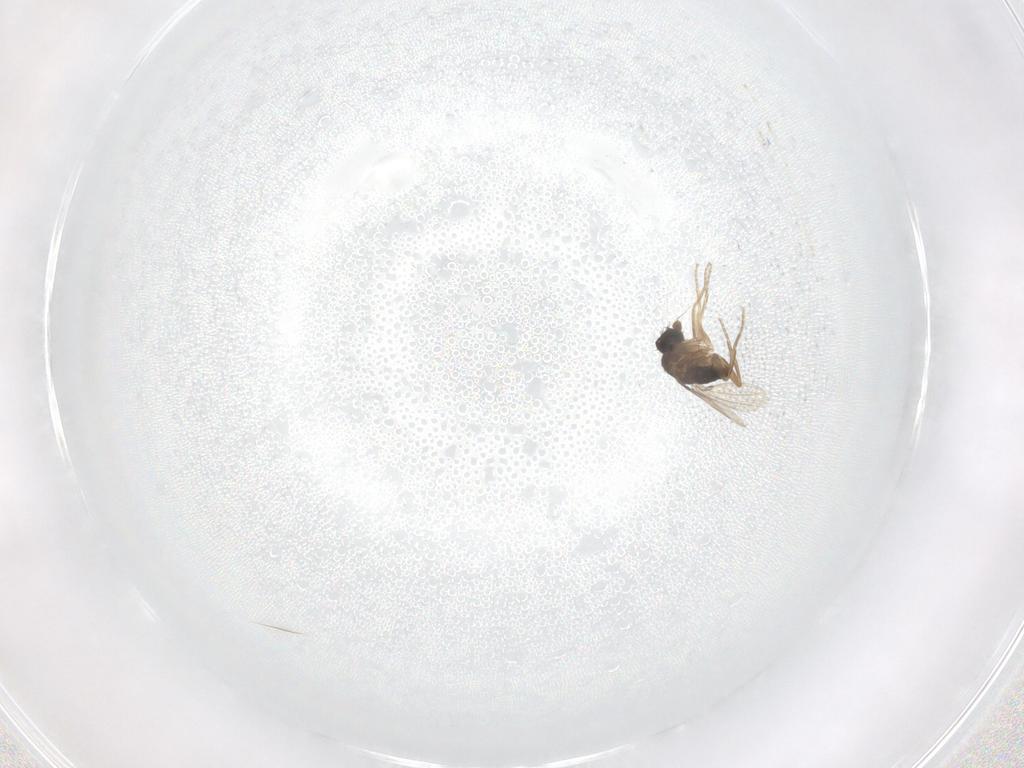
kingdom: Animalia
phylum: Arthropoda
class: Insecta
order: Diptera
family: Phoridae
